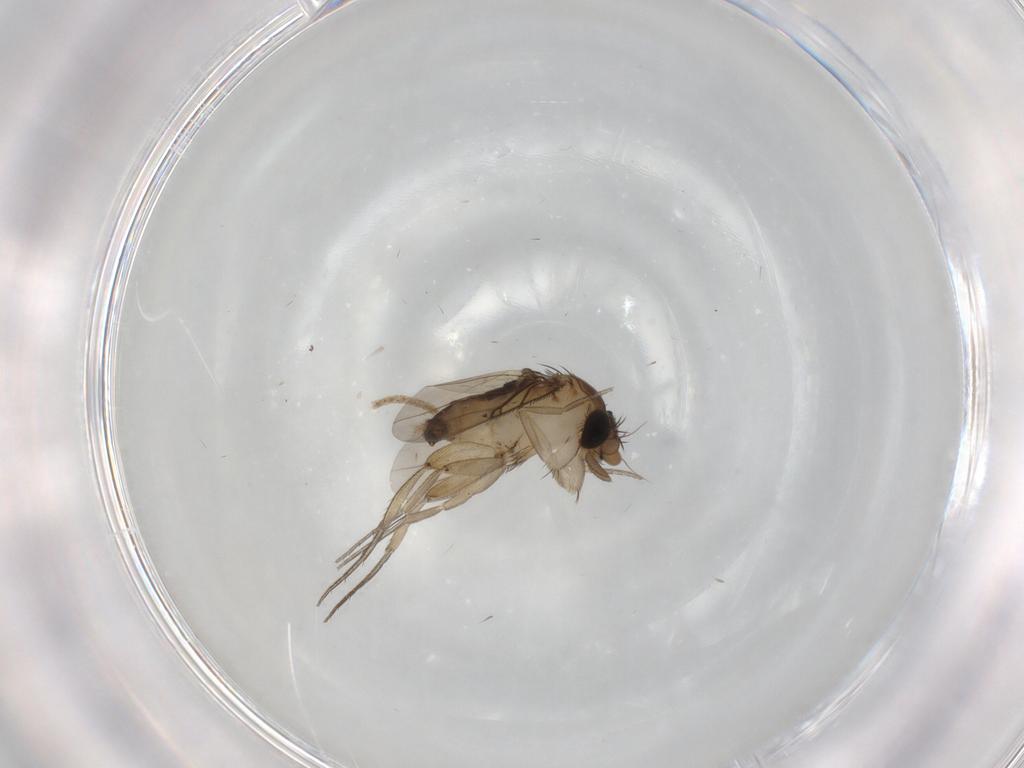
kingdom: Animalia
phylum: Arthropoda
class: Insecta
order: Diptera
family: Phoridae
